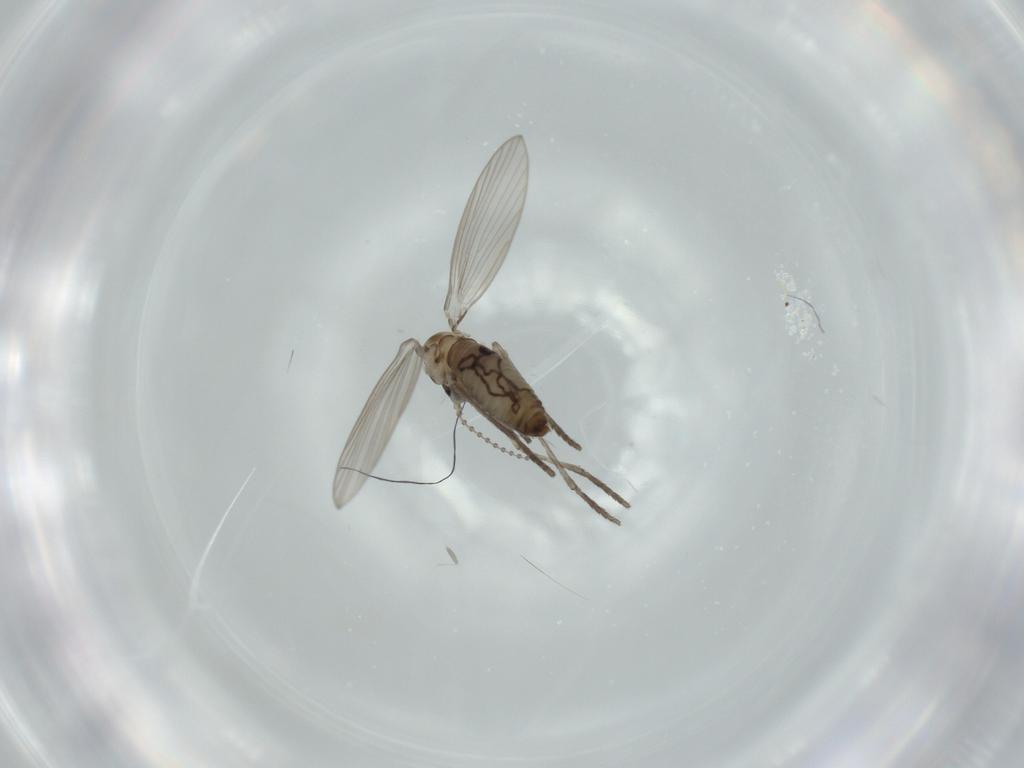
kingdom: Animalia
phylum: Arthropoda
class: Insecta
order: Diptera
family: Psychodidae
